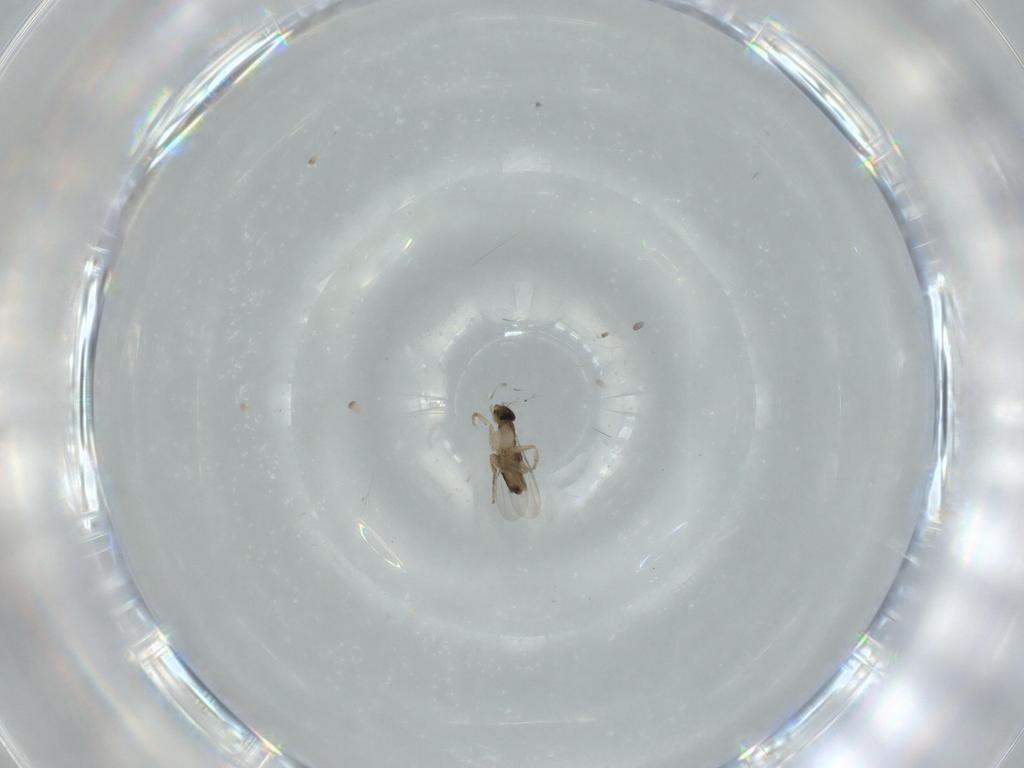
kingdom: Animalia
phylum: Arthropoda
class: Insecta
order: Diptera
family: Phoridae
